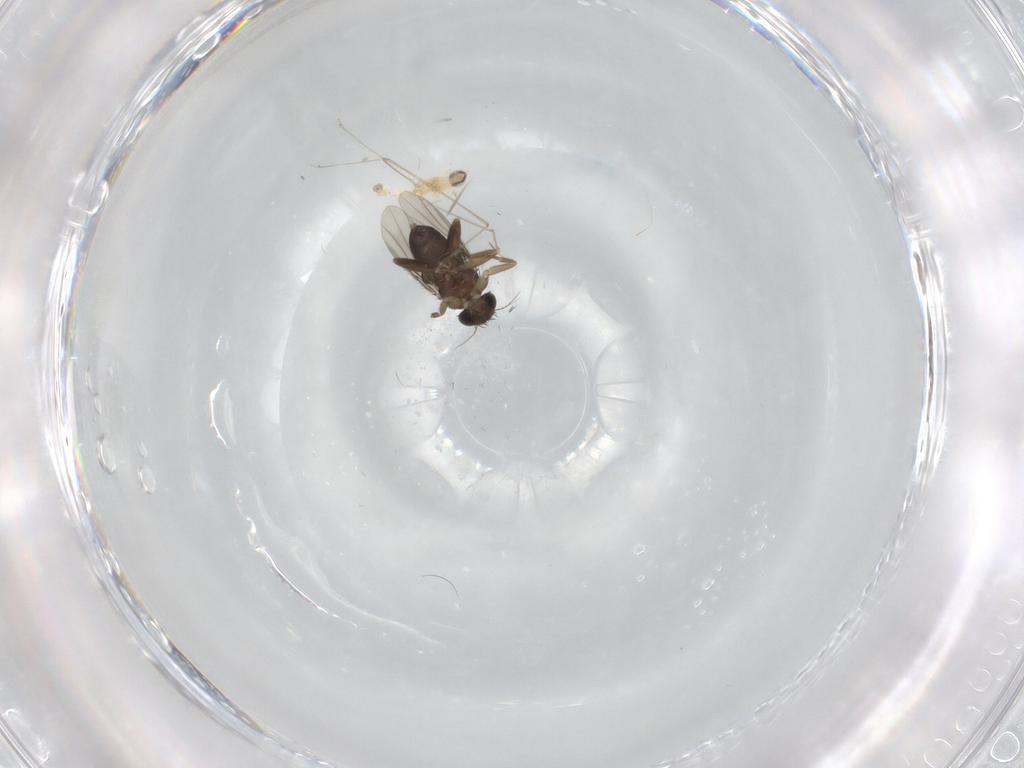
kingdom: Animalia
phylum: Arthropoda
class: Insecta
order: Diptera
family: Phoridae
